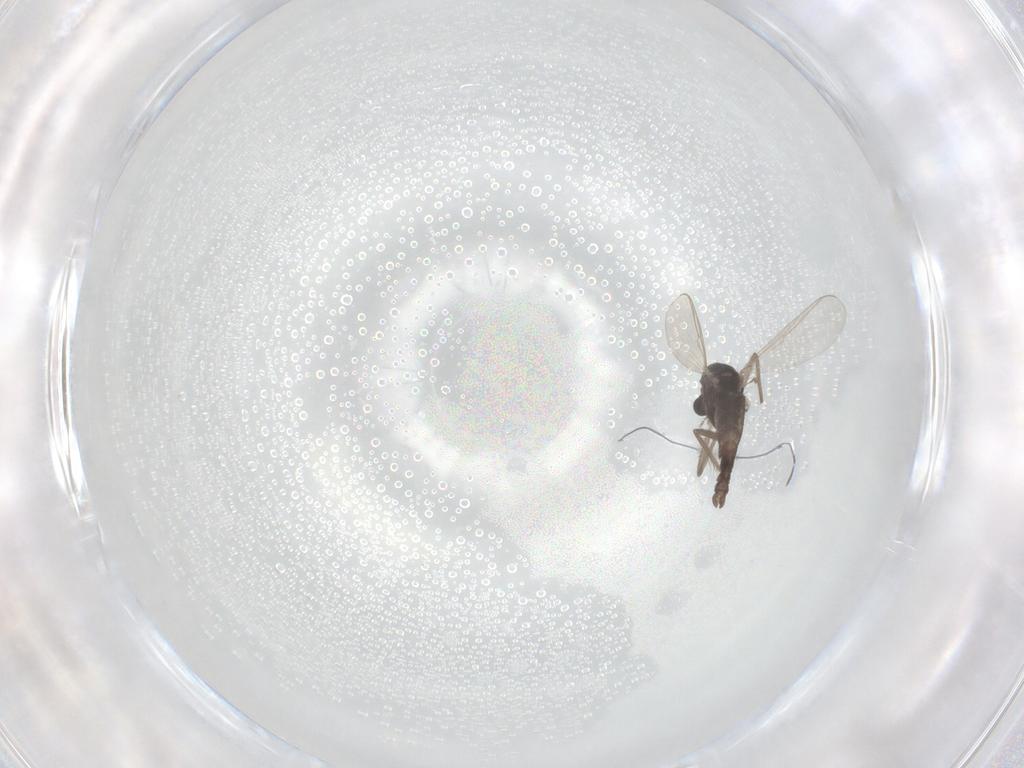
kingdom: Animalia
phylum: Arthropoda
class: Insecta
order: Diptera
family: Chironomidae
